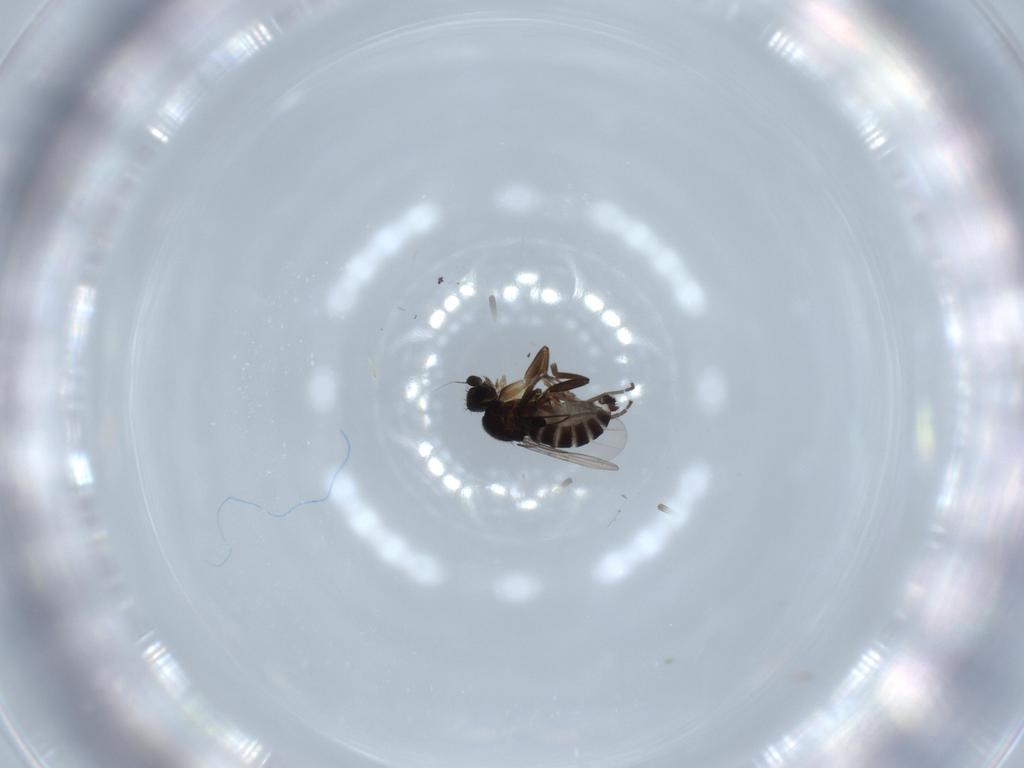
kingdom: Animalia
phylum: Arthropoda
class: Insecta
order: Diptera
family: Phoridae
